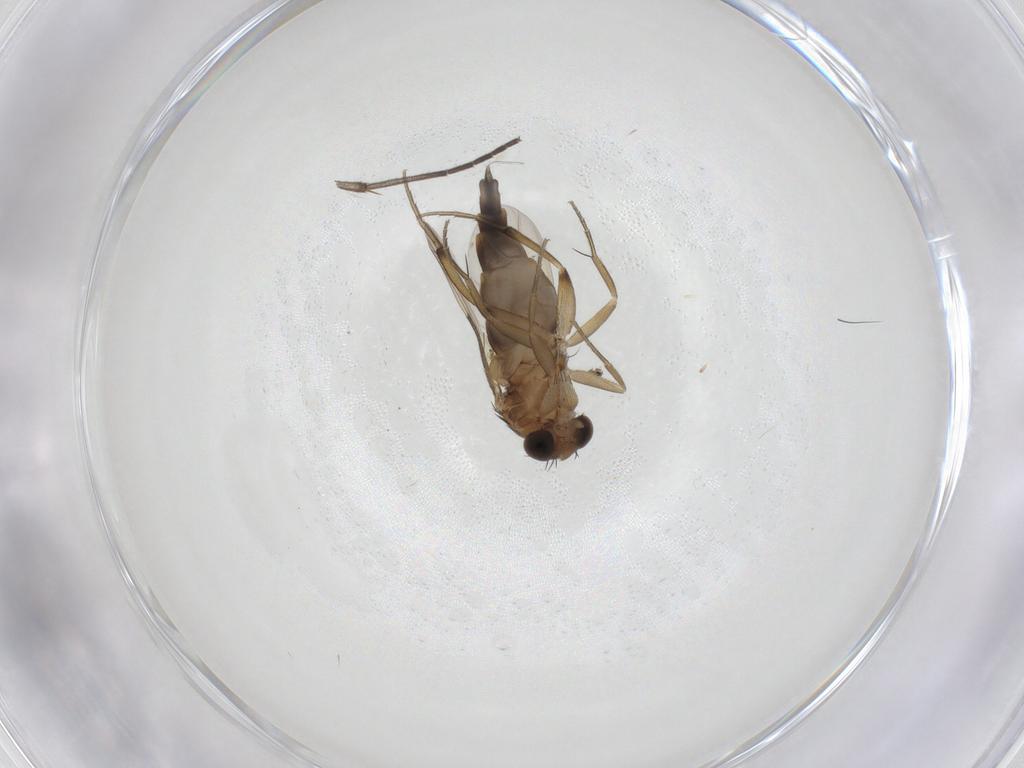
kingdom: Animalia
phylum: Arthropoda
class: Insecta
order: Diptera
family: Phoridae
